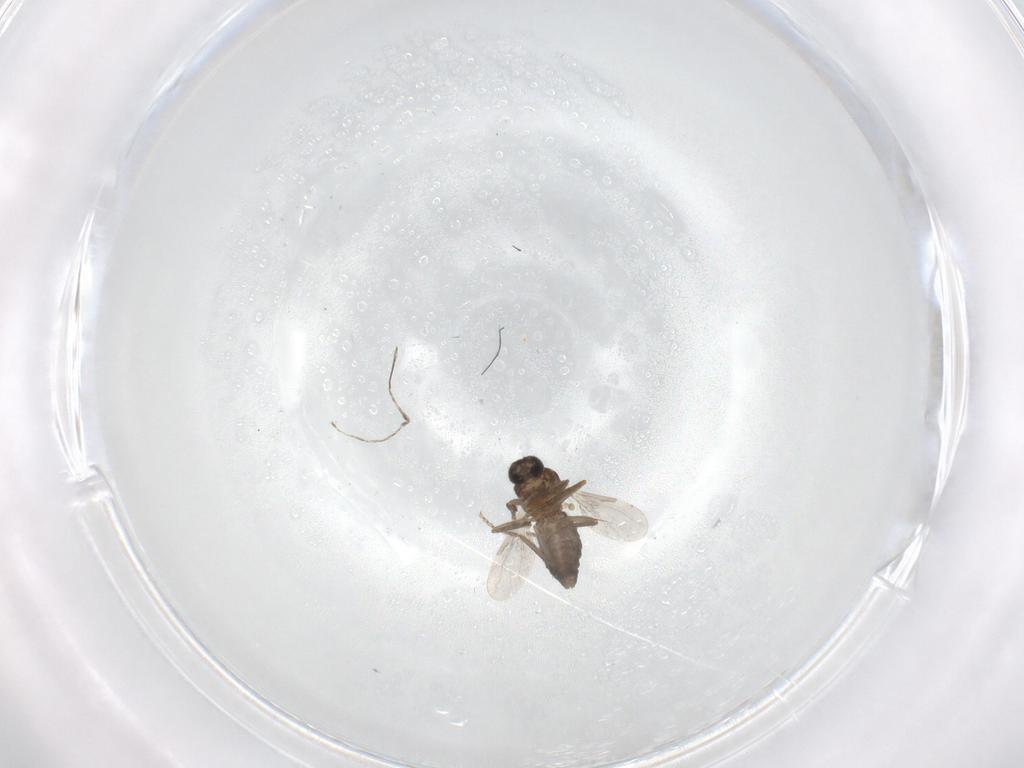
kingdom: Animalia
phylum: Arthropoda
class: Insecta
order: Diptera
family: Ceratopogonidae
